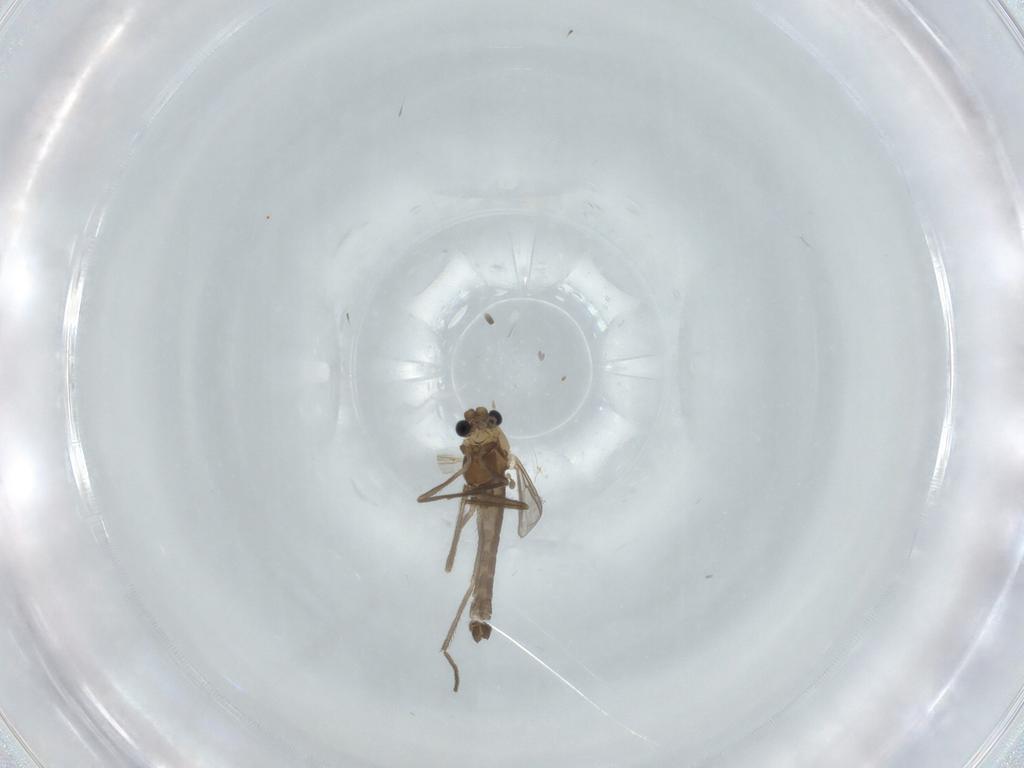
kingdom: Animalia
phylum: Arthropoda
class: Insecta
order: Diptera
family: Chironomidae
